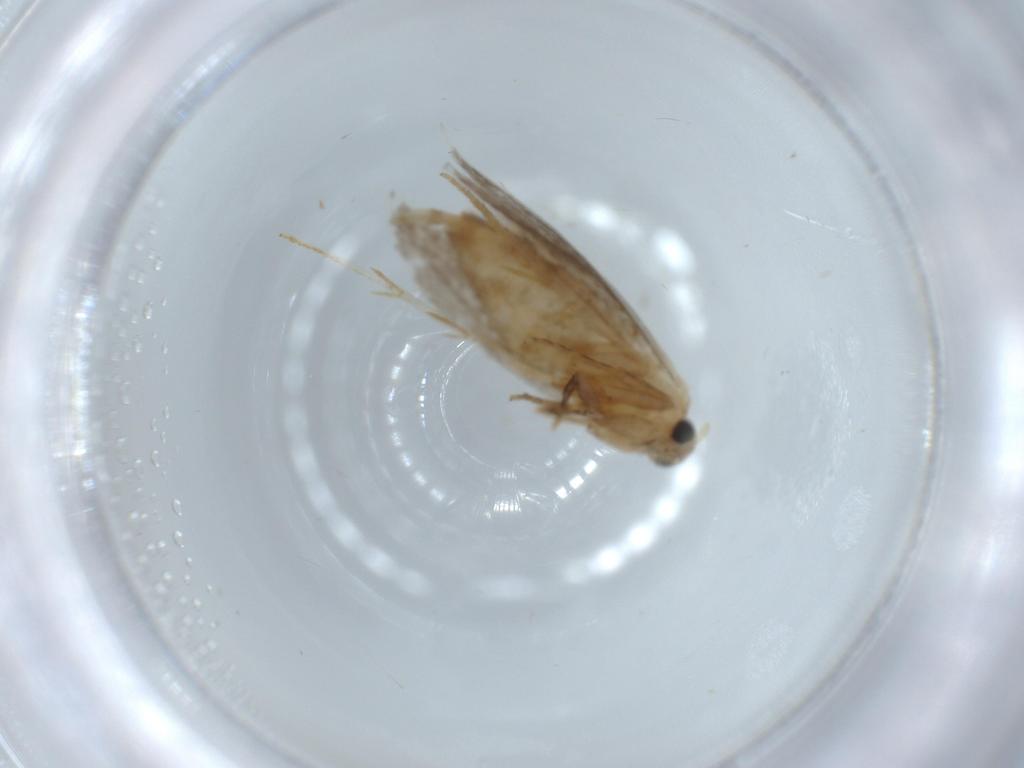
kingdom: Animalia
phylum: Arthropoda
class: Insecta
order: Lepidoptera
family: Tineidae
